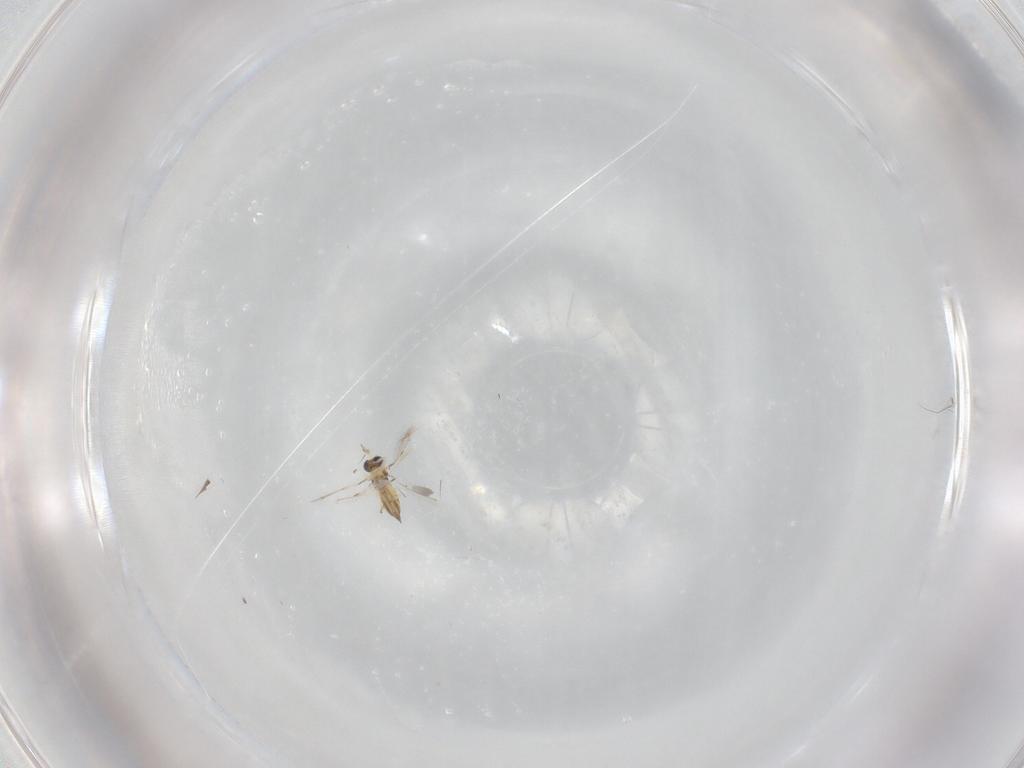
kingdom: Animalia
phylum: Arthropoda
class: Insecta
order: Hymenoptera
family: Trichogrammatidae
